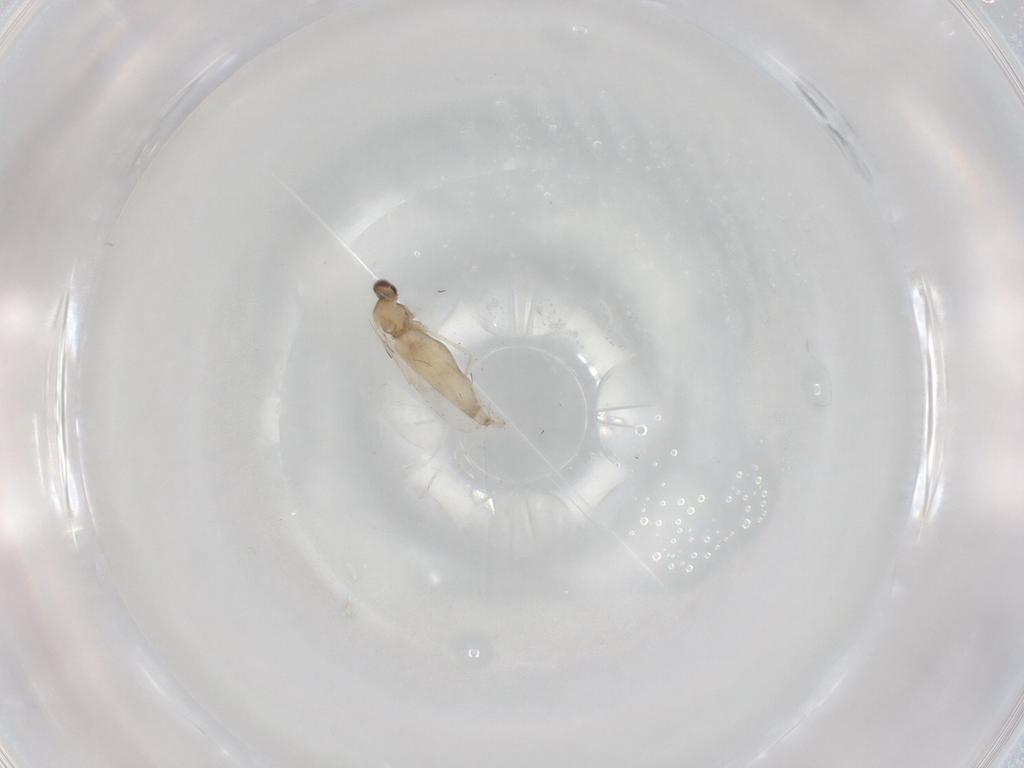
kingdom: Animalia
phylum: Arthropoda
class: Insecta
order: Diptera
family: Cecidomyiidae
